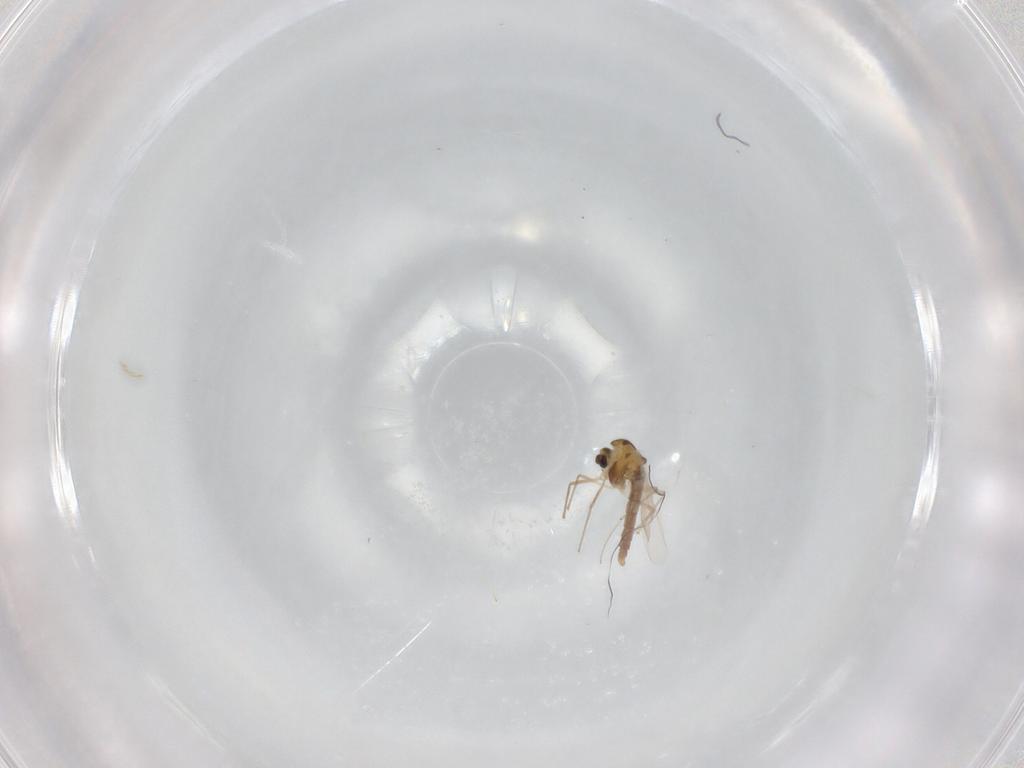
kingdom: Animalia
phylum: Arthropoda
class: Insecta
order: Diptera
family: Chironomidae
